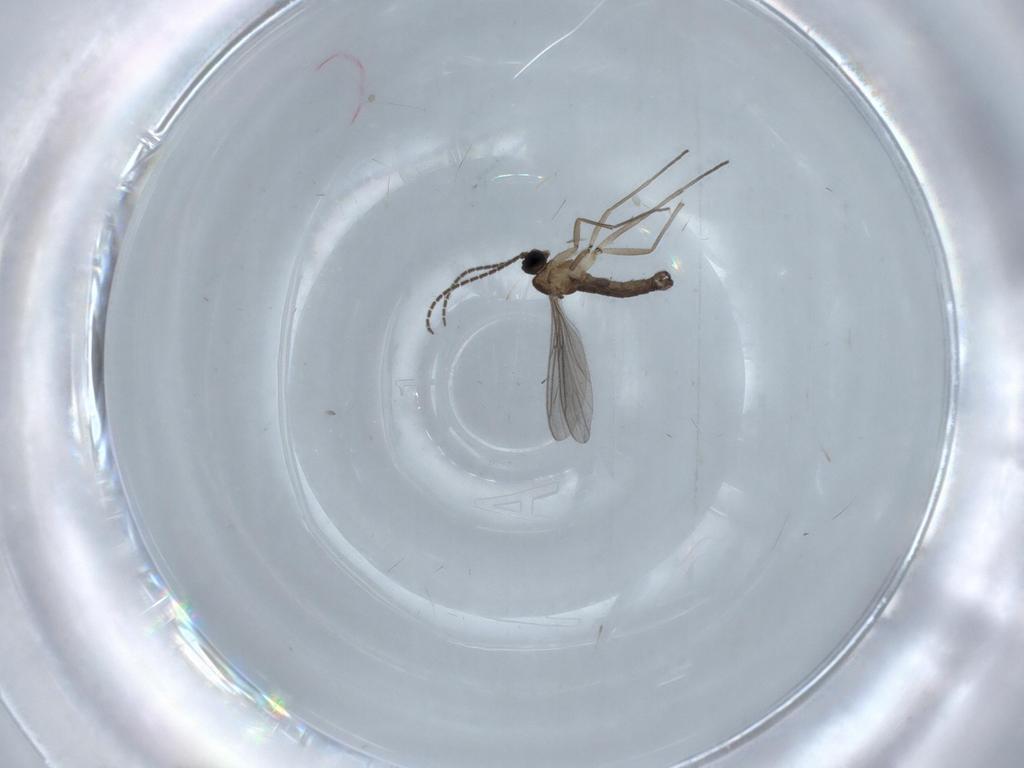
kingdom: Animalia
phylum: Arthropoda
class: Insecta
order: Diptera
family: Sciaridae
